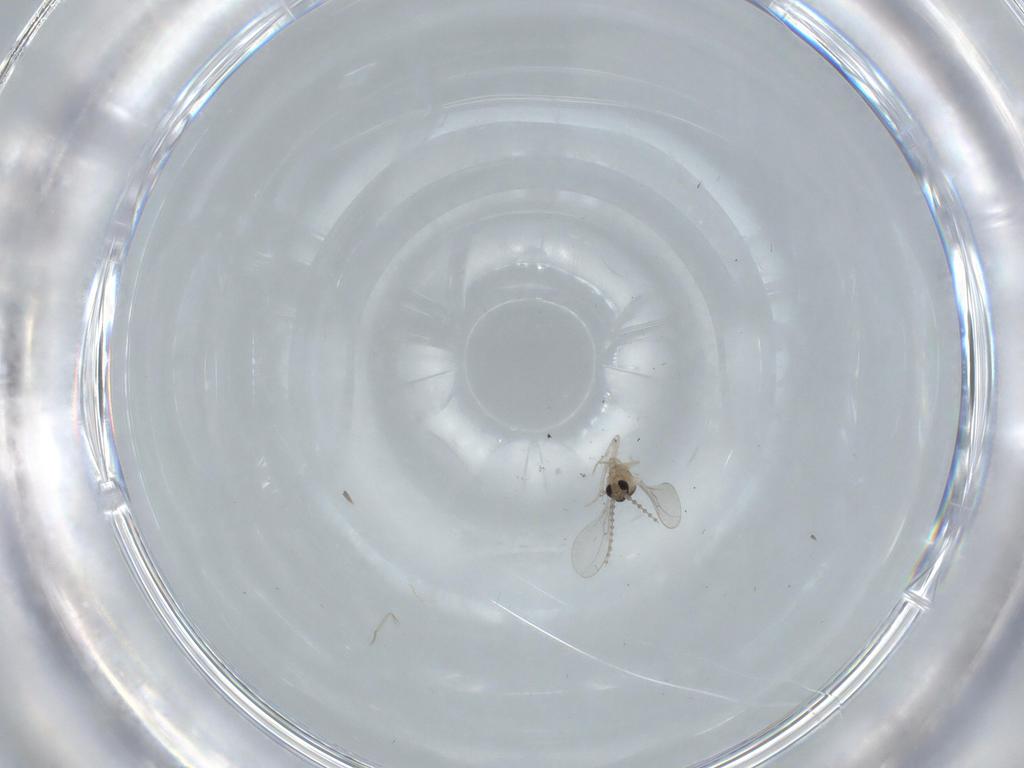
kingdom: Animalia
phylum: Arthropoda
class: Insecta
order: Diptera
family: Cecidomyiidae
